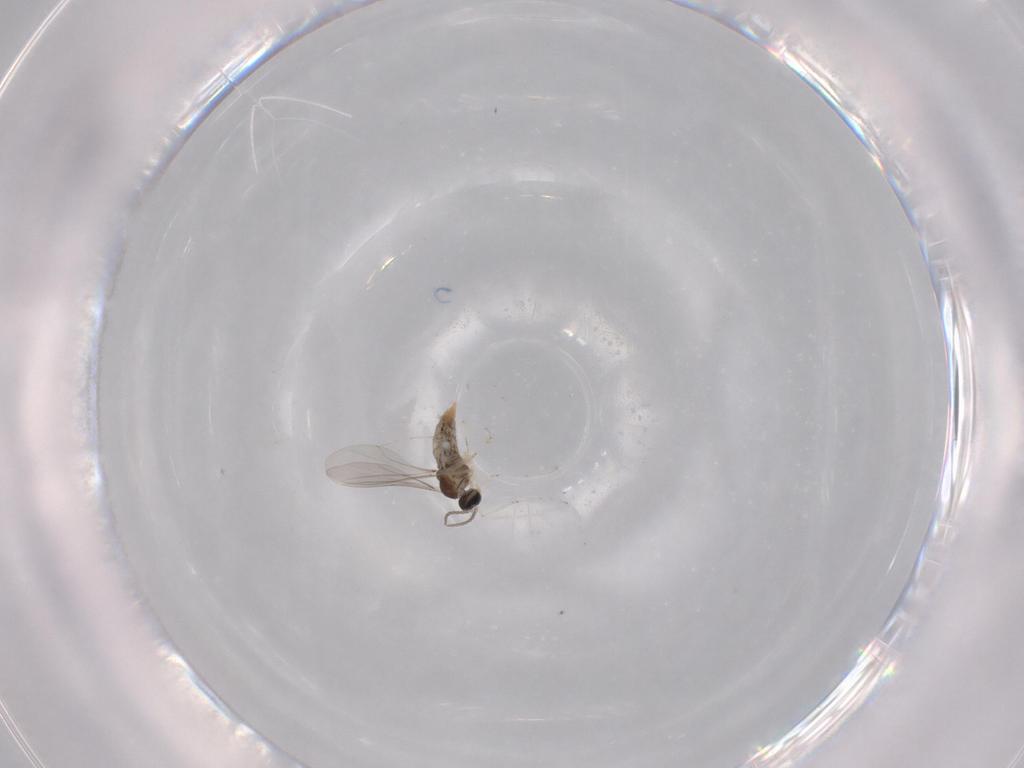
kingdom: Animalia
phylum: Arthropoda
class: Insecta
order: Diptera
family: Cecidomyiidae
